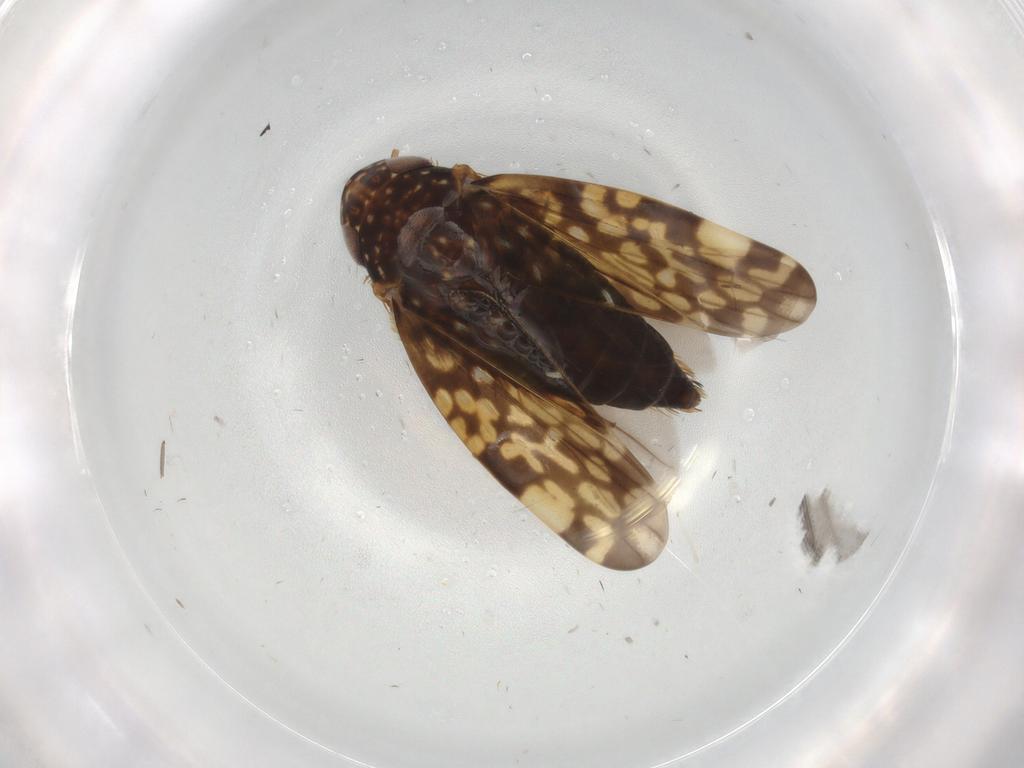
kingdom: Animalia
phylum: Arthropoda
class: Insecta
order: Hemiptera
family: Cicadellidae
